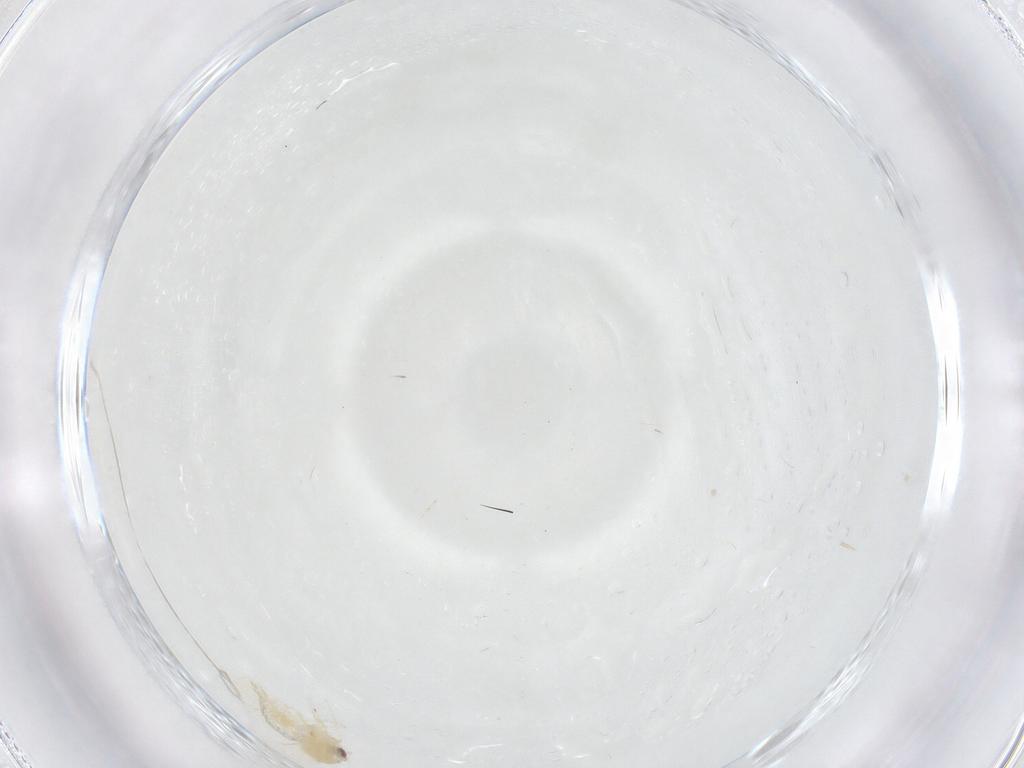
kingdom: Animalia
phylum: Arthropoda
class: Insecta
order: Hemiptera
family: Aleyrodidae
